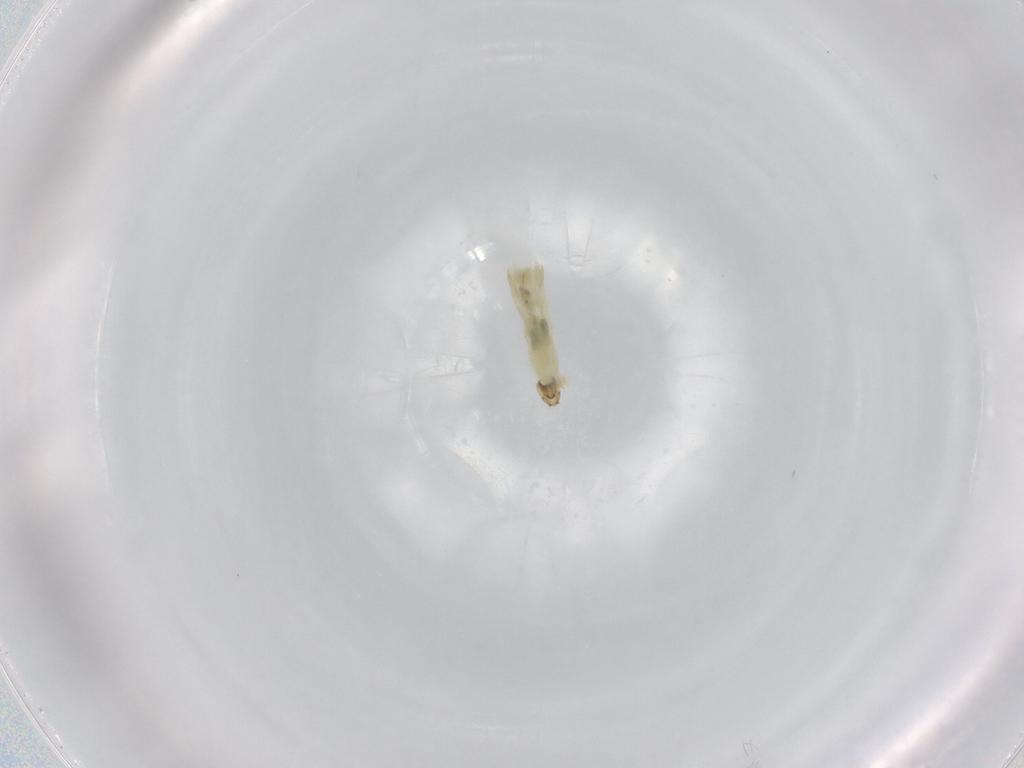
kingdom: Animalia
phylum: Arthropoda
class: Insecta
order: Diptera
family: Chironomidae
